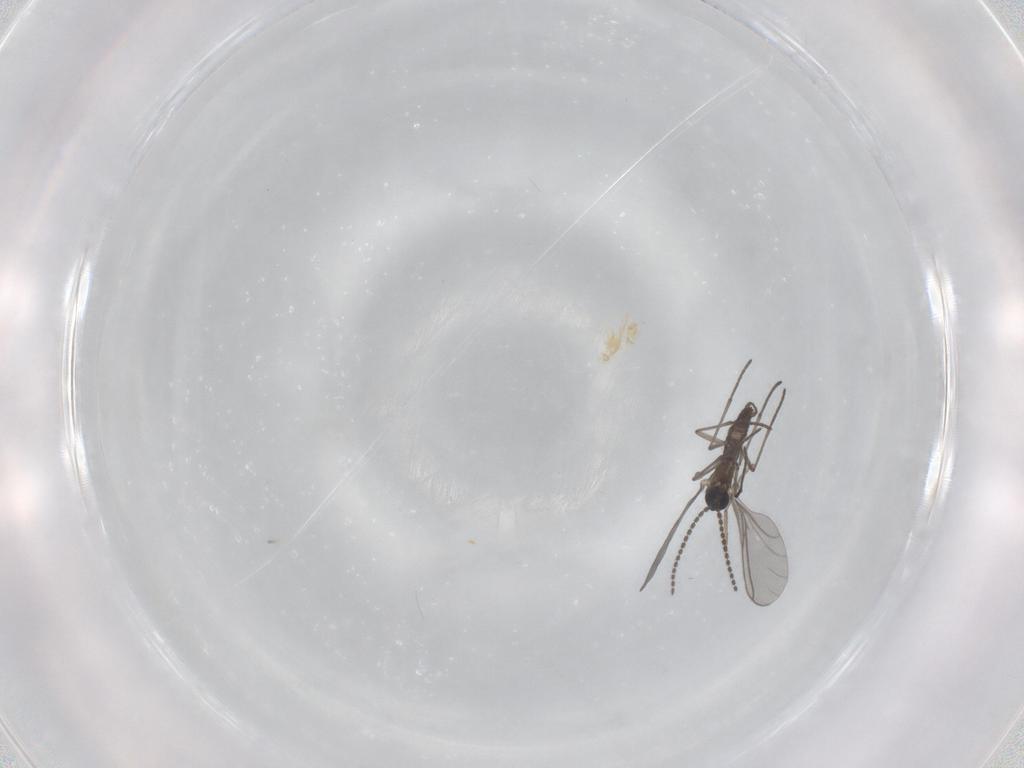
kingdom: Animalia
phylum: Arthropoda
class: Insecta
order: Diptera
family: Sciaridae
